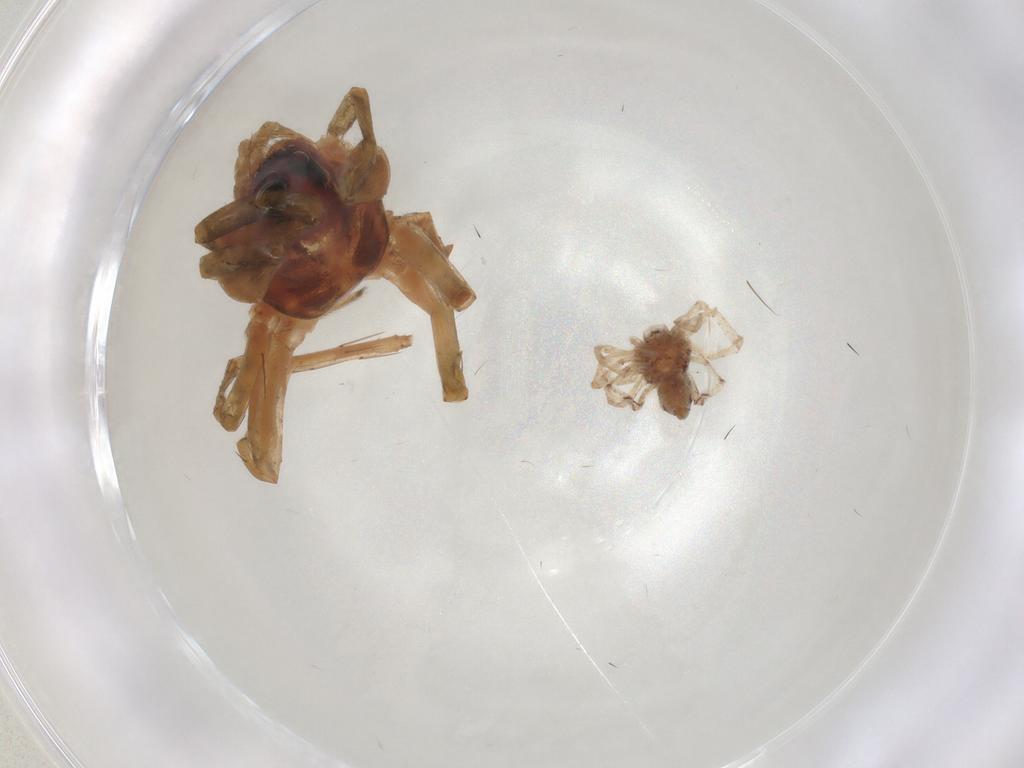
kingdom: Animalia
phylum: Arthropoda
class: Arachnida
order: Araneae
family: Lycosidae
